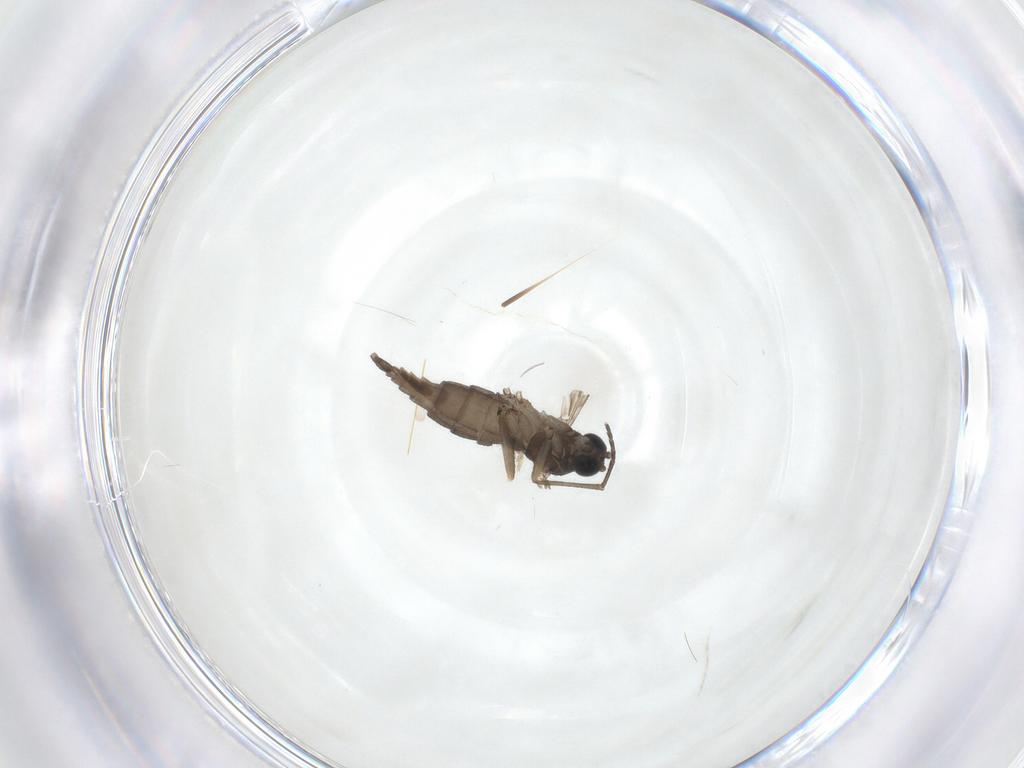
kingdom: Animalia
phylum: Arthropoda
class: Insecta
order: Diptera
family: Sciaridae
